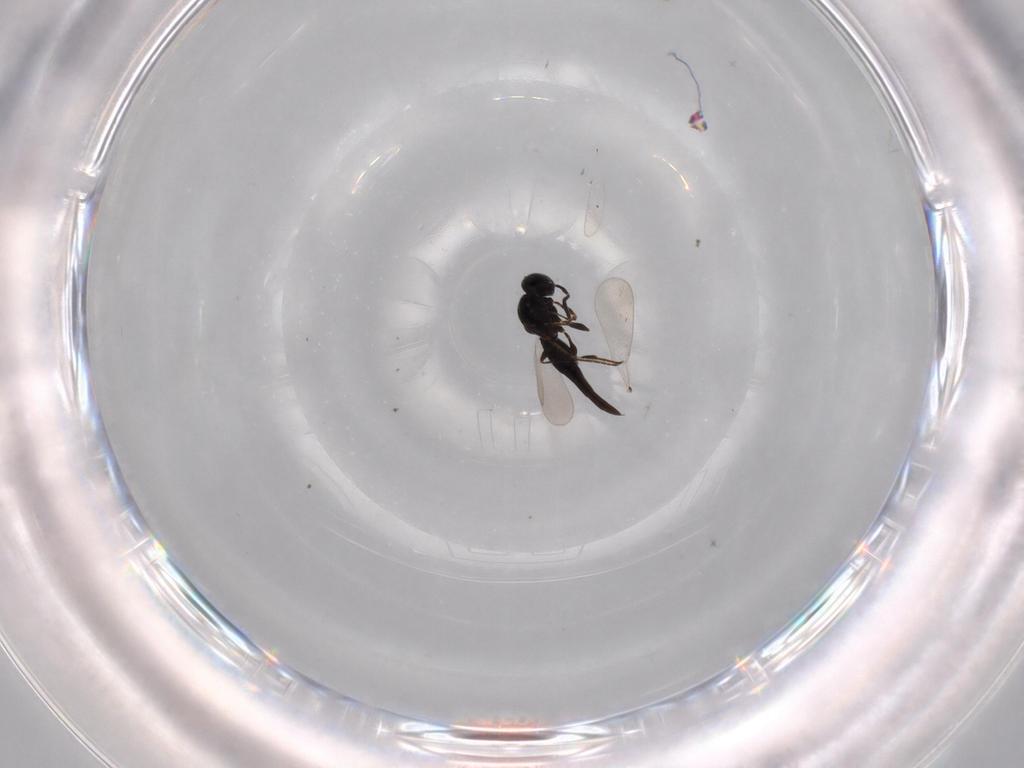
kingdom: Animalia
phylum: Arthropoda
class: Insecta
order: Hymenoptera
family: Platygastridae
